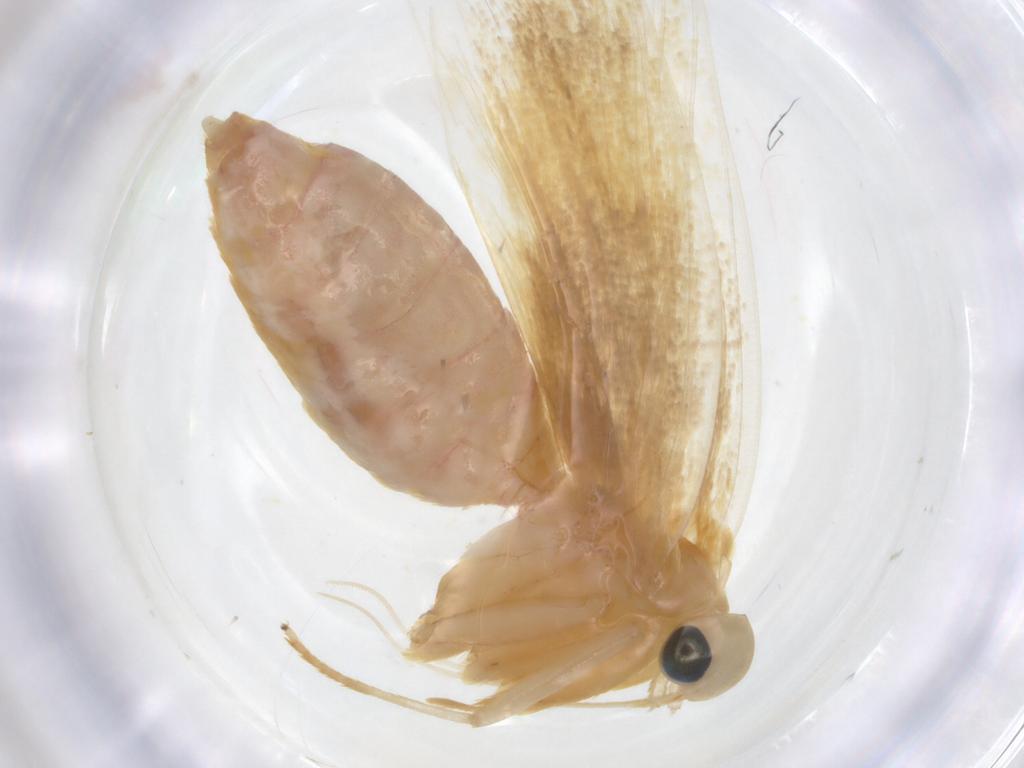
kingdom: Animalia
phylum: Arthropoda
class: Insecta
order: Lepidoptera
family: Lecithoceridae
